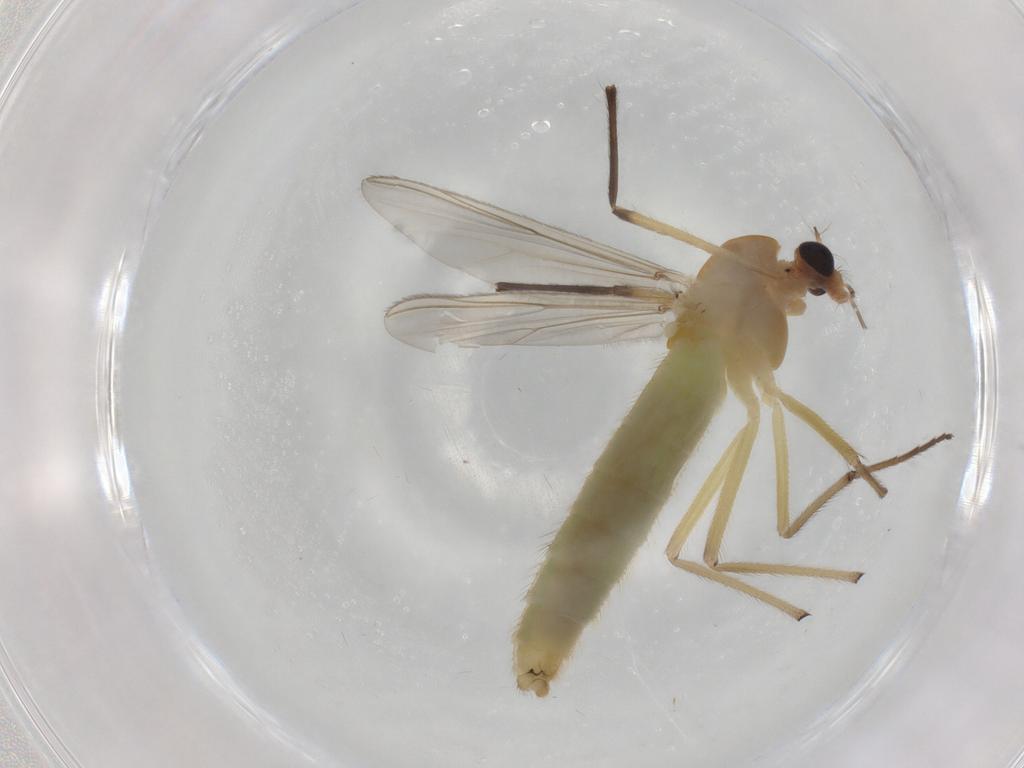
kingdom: Animalia
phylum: Arthropoda
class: Insecta
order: Diptera
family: Chironomidae
